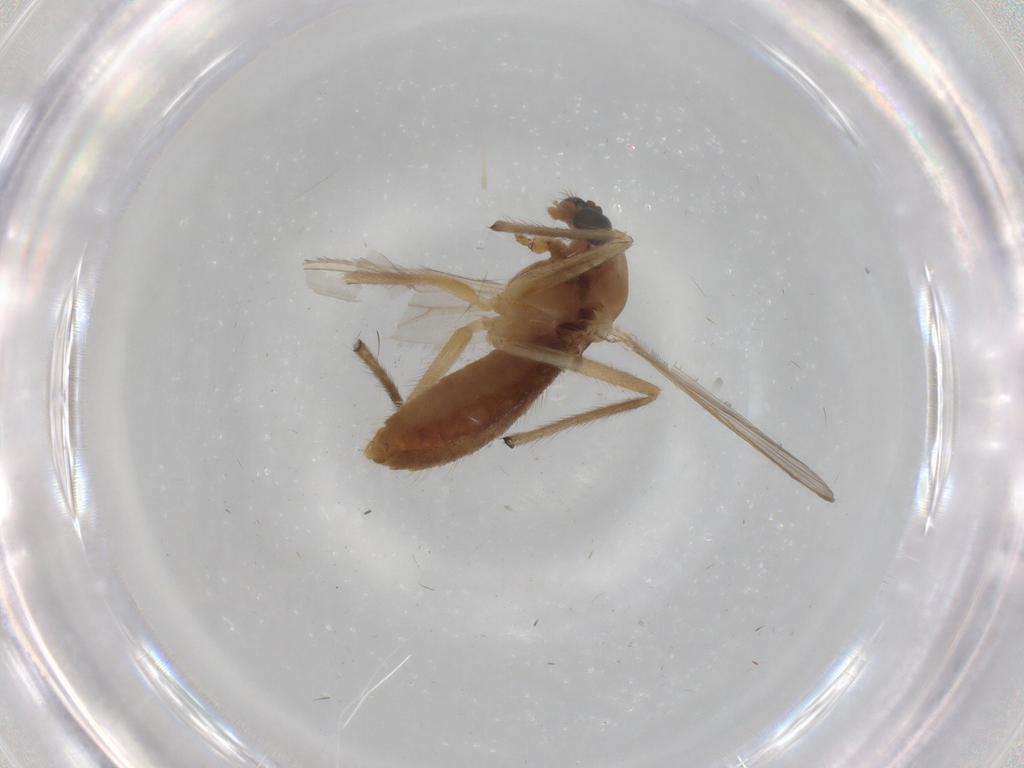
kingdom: Animalia
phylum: Arthropoda
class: Insecta
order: Diptera
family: Chironomidae
